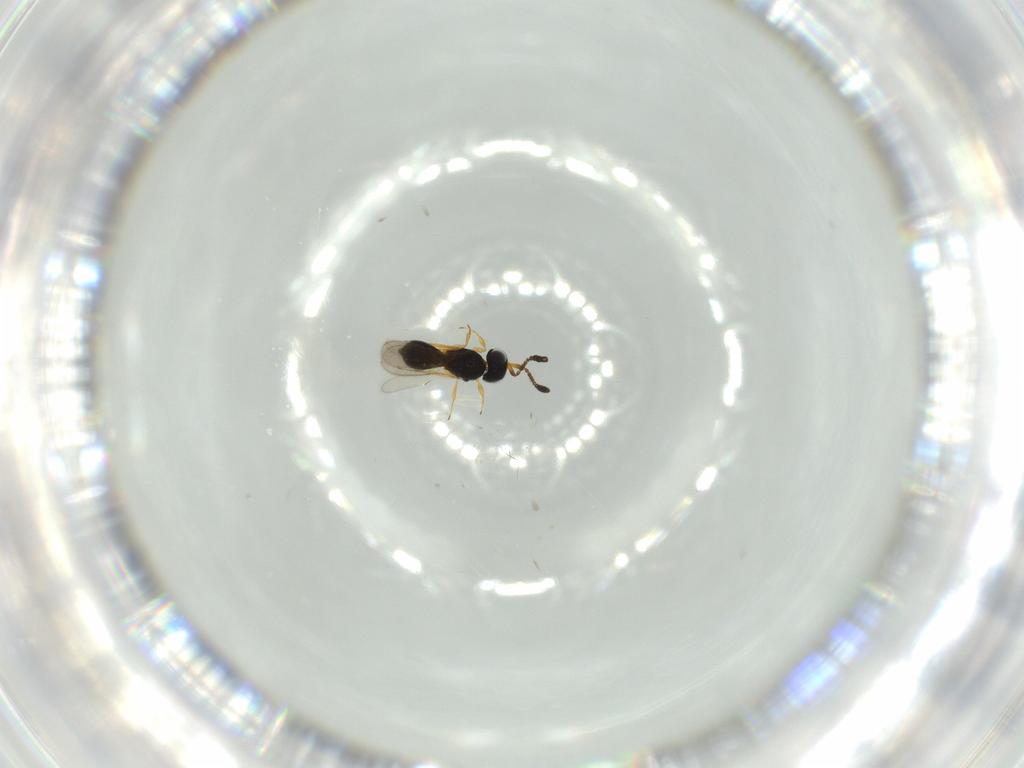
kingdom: Animalia
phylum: Arthropoda
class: Insecta
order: Hymenoptera
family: Scelionidae
